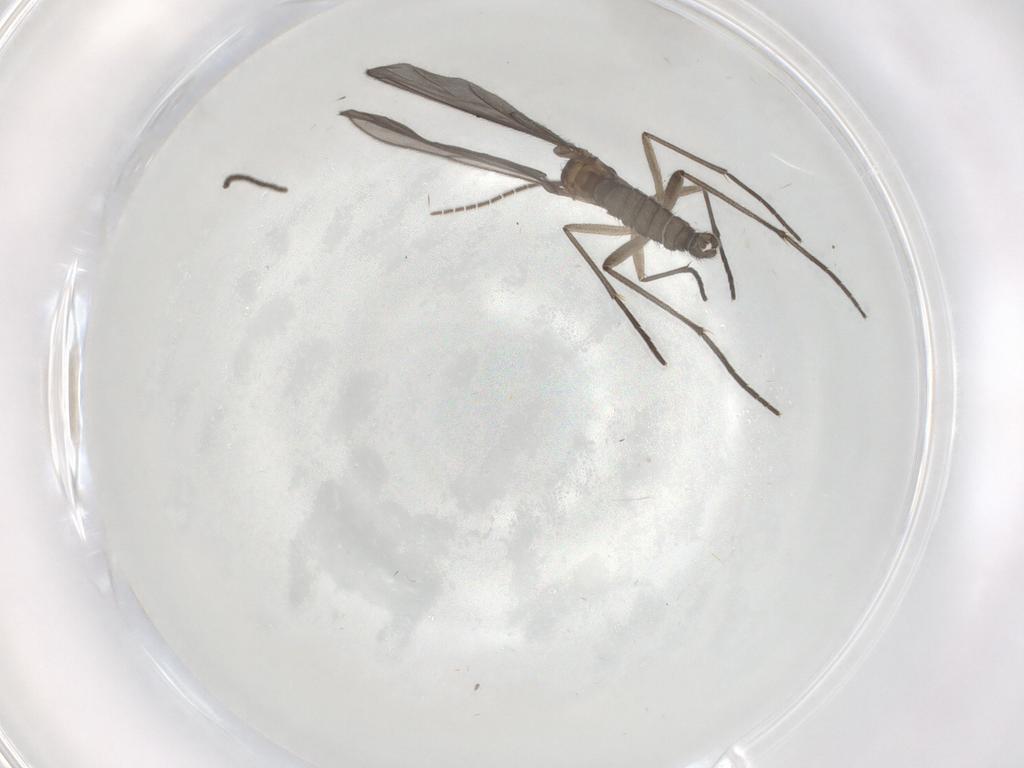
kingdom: Animalia
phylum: Arthropoda
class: Insecta
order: Diptera
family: Sciaridae
